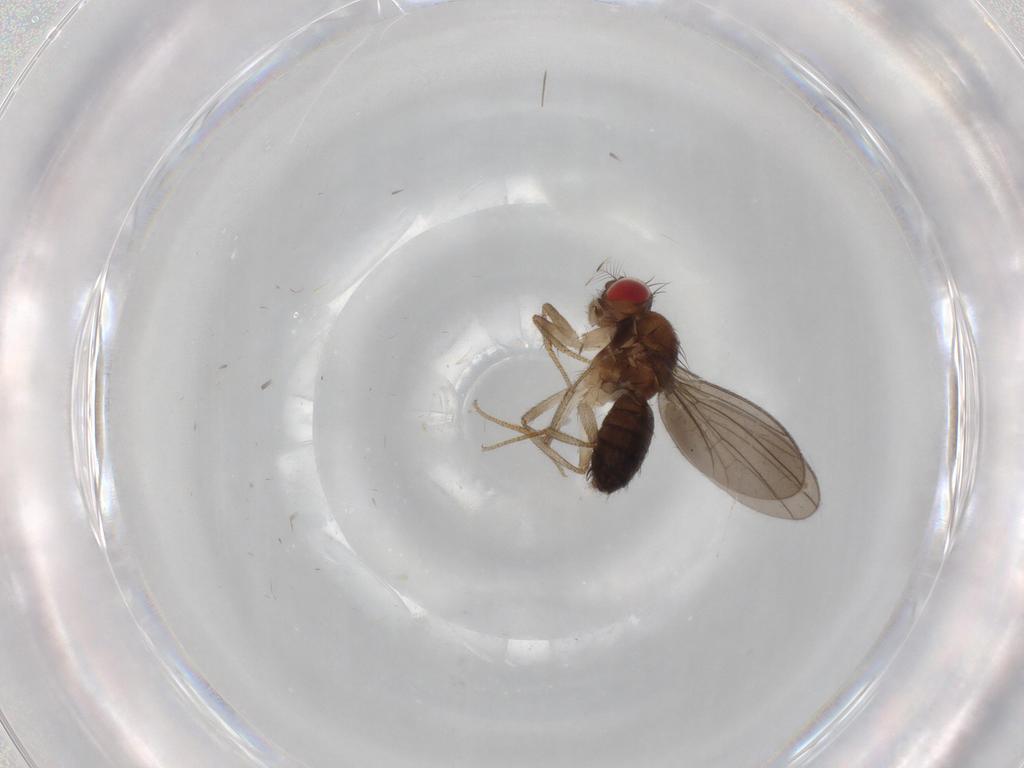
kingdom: Animalia
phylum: Arthropoda
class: Insecta
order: Diptera
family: Drosophilidae
